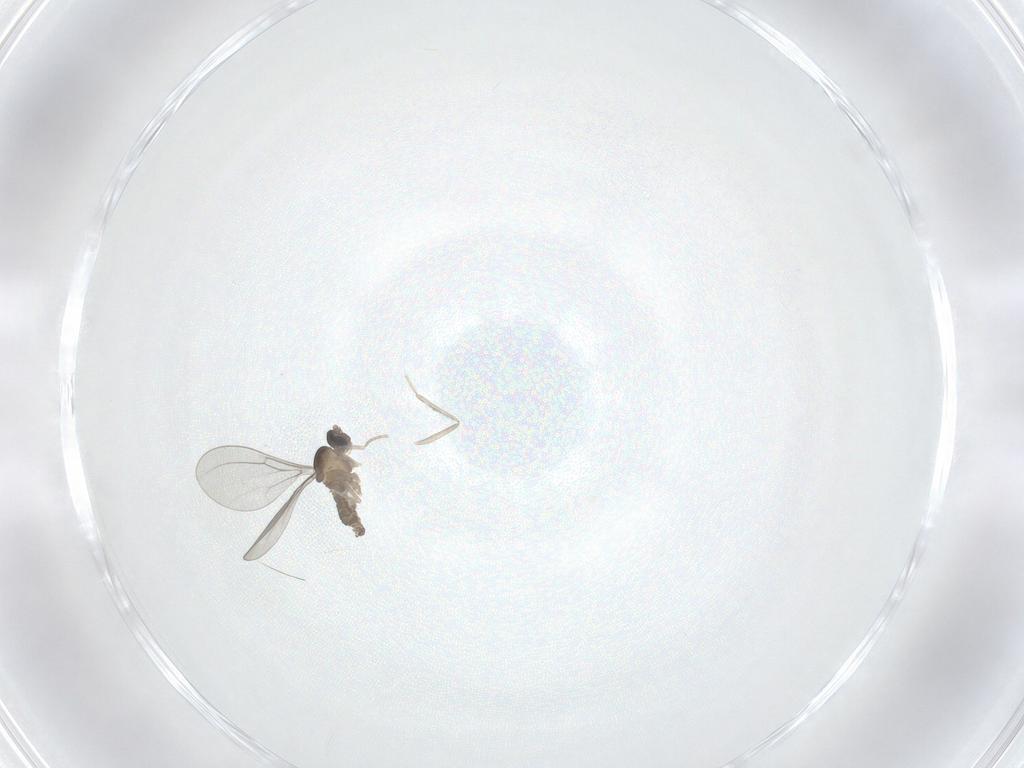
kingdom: Animalia
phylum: Arthropoda
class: Insecta
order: Diptera
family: Cecidomyiidae
